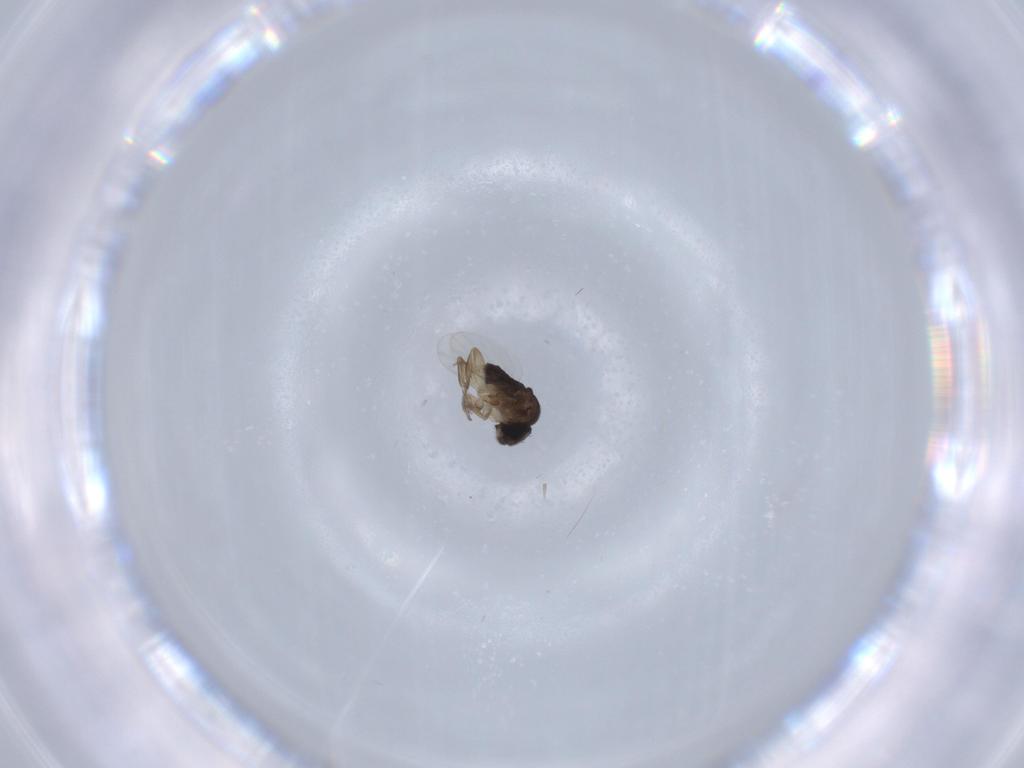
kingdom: Animalia
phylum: Arthropoda
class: Insecta
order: Diptera
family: Phoridae
